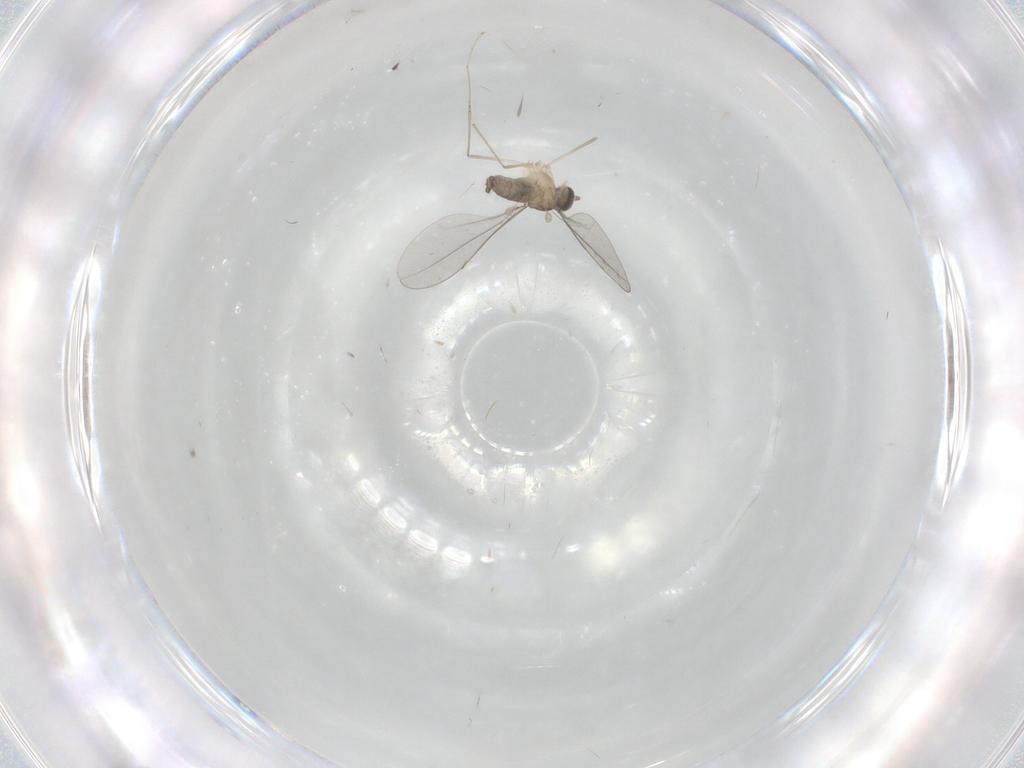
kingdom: Animalia
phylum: Arthropoda
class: Insecta
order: Diptera
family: Cecidomyiidae
